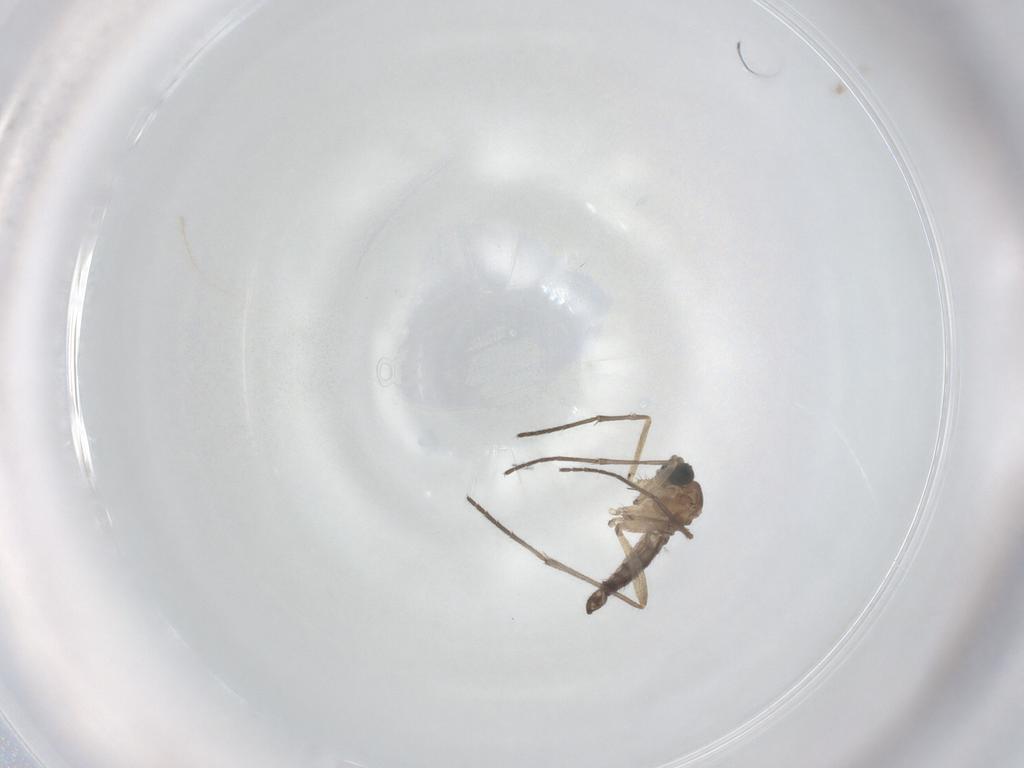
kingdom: Animalia
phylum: Arthropoda
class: Insecta
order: Diptera
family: Sciaridae
